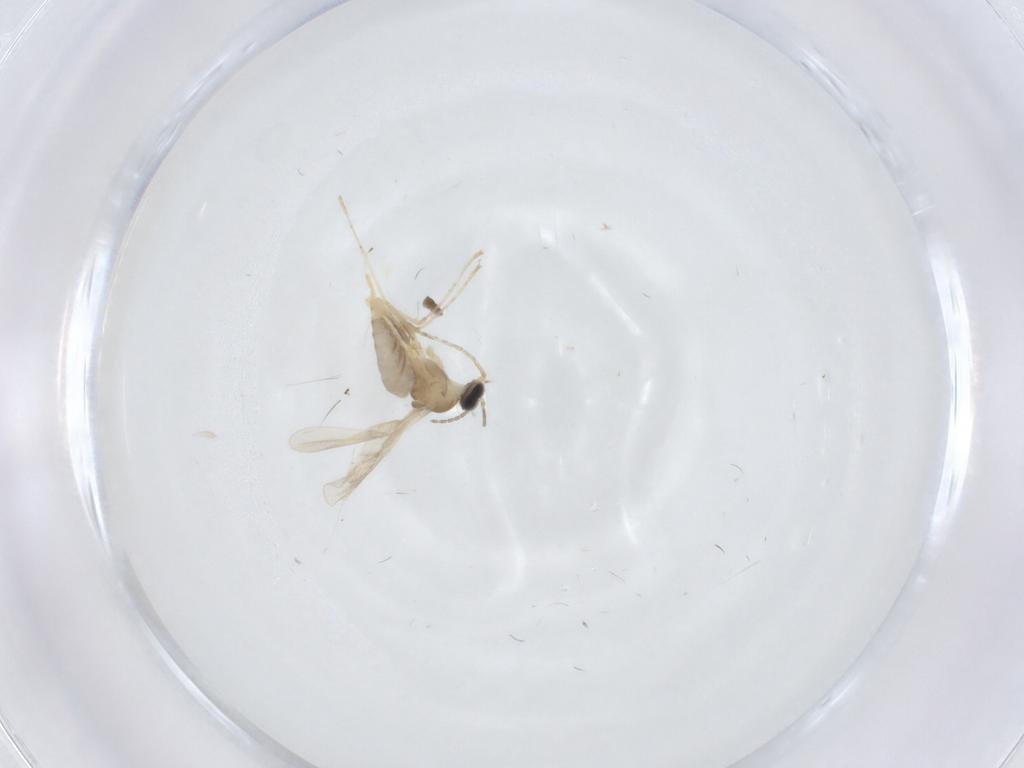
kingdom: Animalia
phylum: Arthropoda
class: Insecta
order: Diptera
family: Cecidomyiidae
